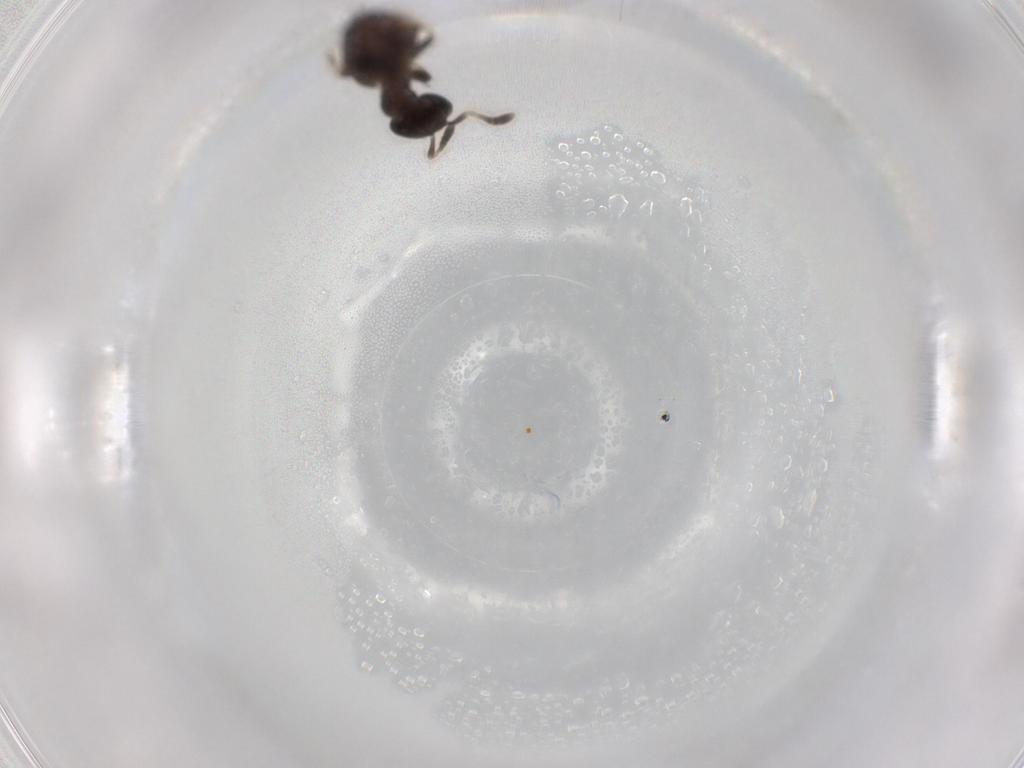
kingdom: Animalia
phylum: Arthropoda
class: Insecta
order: Hymenoptera
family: Formicidae
